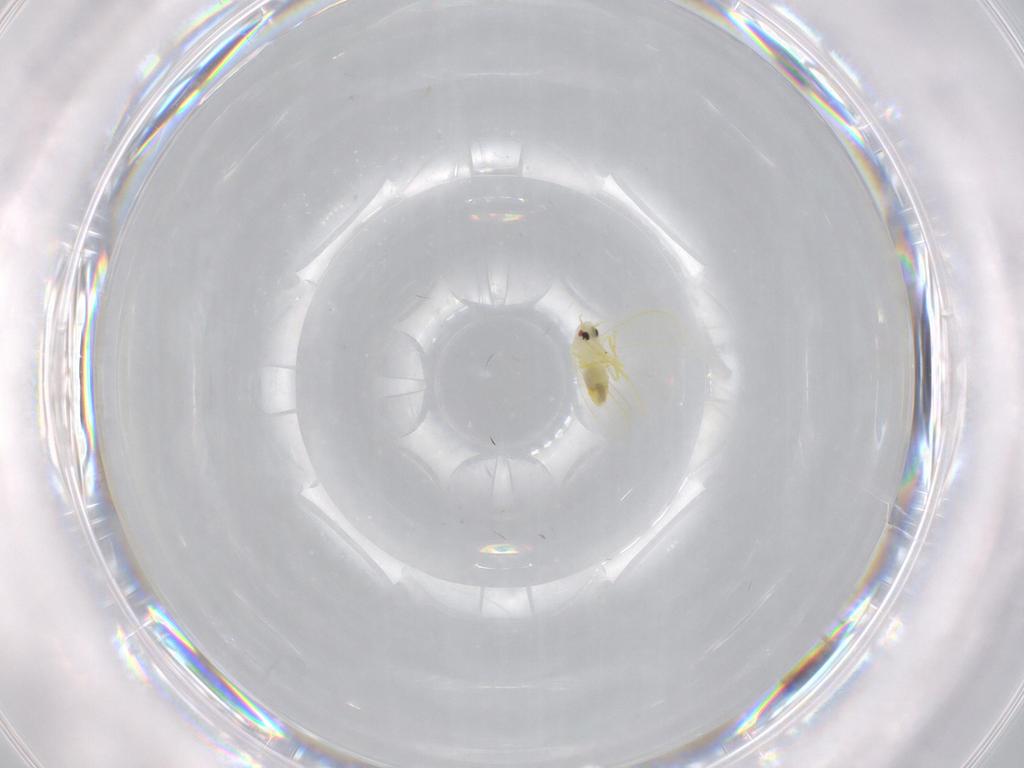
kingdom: Animalia
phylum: Arthropoda
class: Insecta
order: Hemiptera
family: Aleyrodidae
